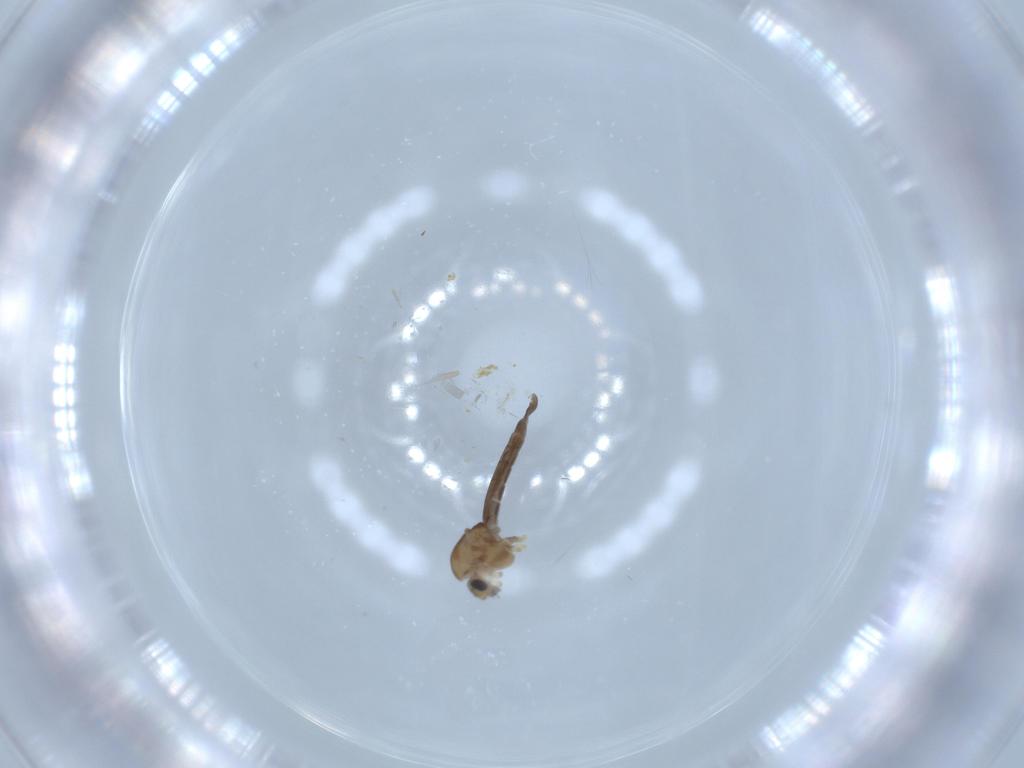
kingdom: Animalia
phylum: Arthropoda
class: Insecta
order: Diptera
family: Chironomidae
